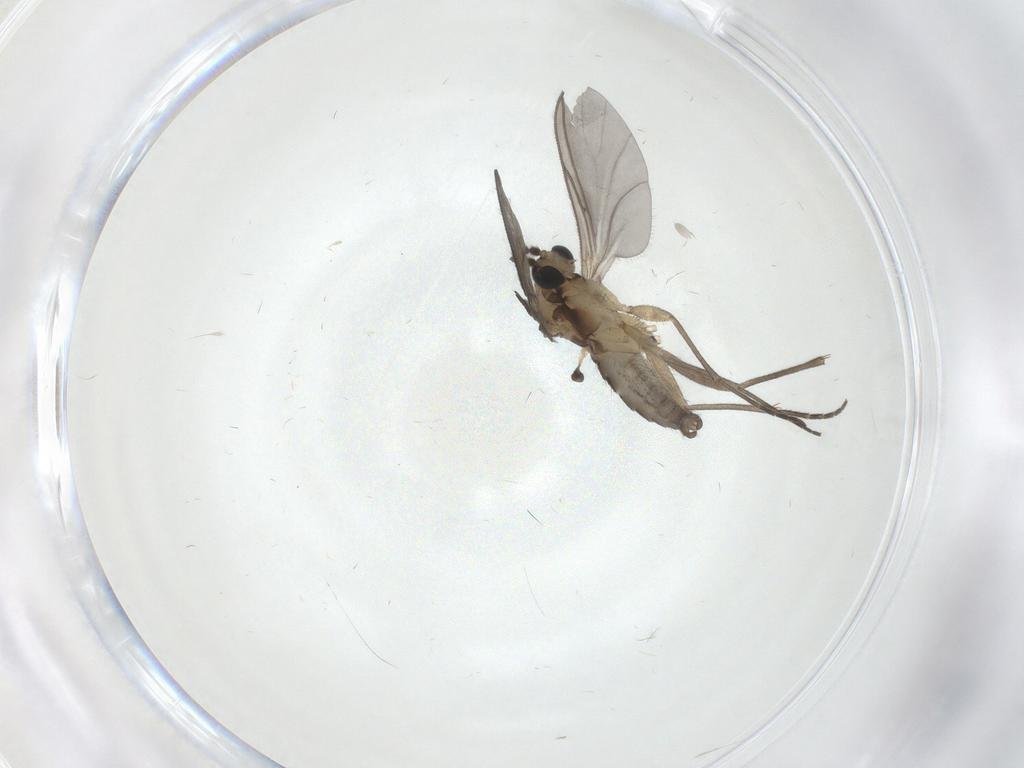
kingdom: Animalia
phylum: Arthropoda
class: Insecta
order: Diptera
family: Sciaridae
